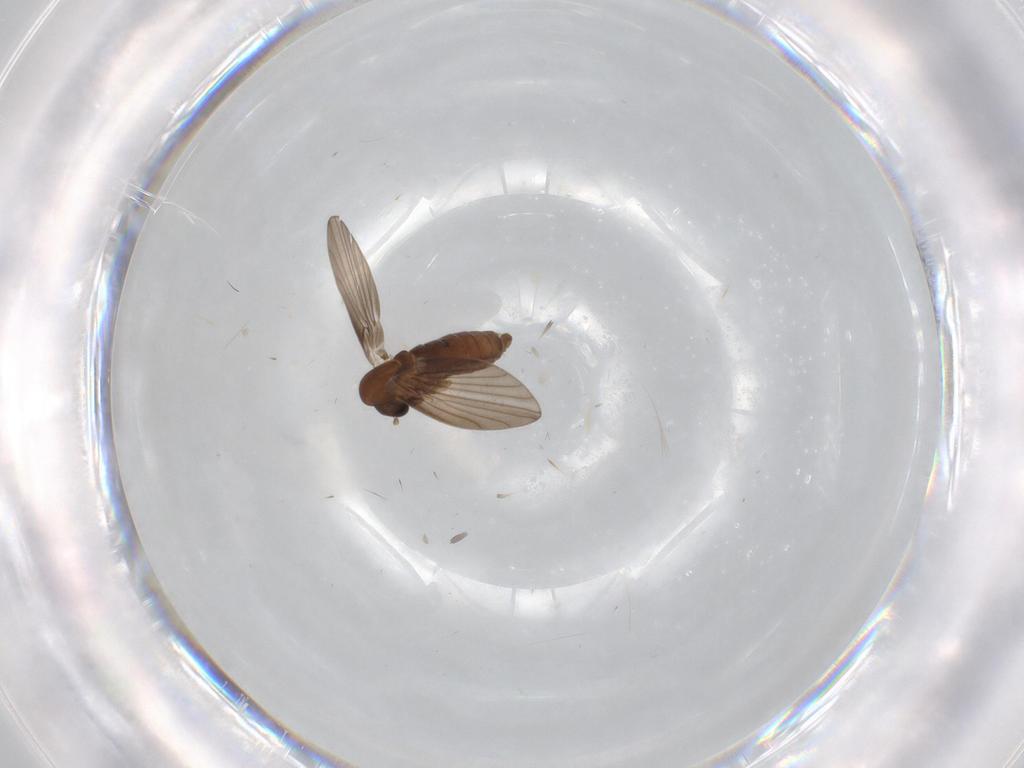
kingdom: Animalia
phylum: Arthropoda
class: Insecta
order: Diptera
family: Psychodidae
